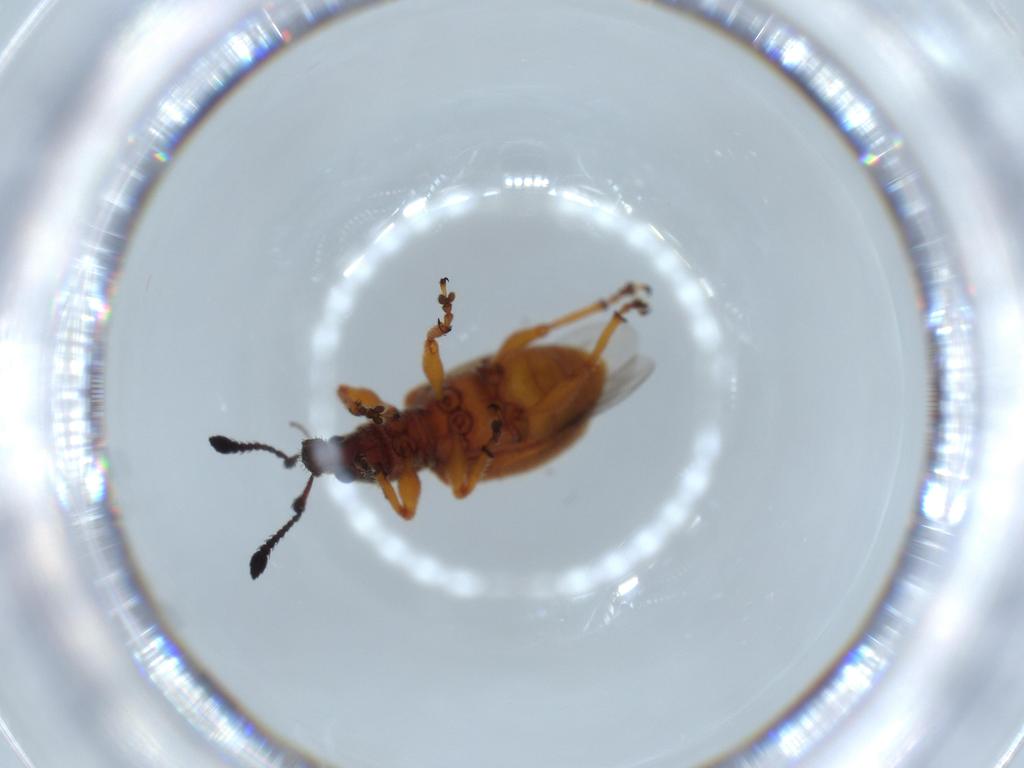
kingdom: Animalia
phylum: Arthropoda
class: Insecta
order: Coleoptera
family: Curculionidae
